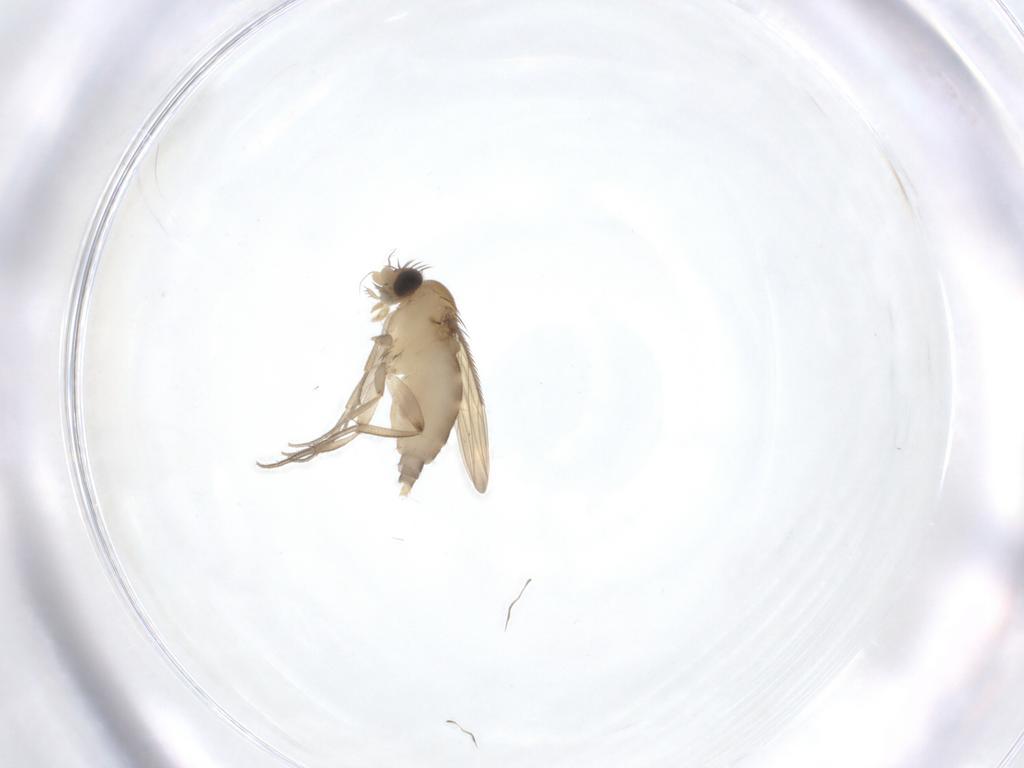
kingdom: Animalia
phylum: Arthropoda
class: Insecta
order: Diptera
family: Phoridae
